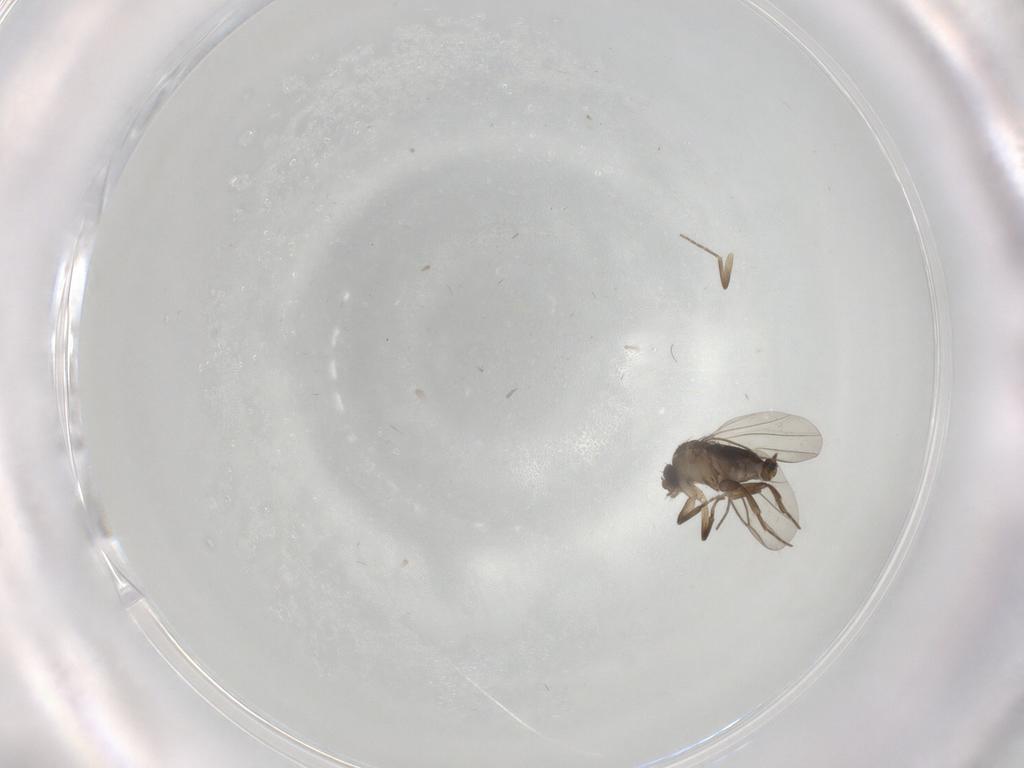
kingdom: Animalia
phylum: Arthropoda
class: Insecta
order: Diptera
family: Phoridae
